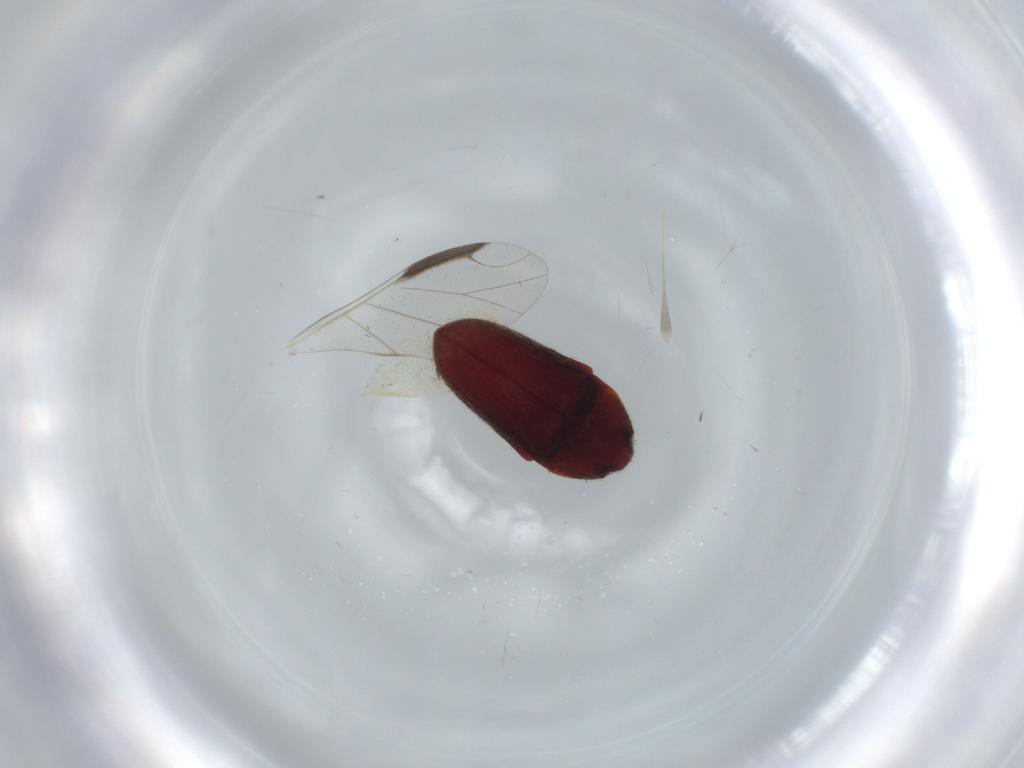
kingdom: Animalia
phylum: Arthropoda
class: Insecta
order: Coleoptera
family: Throscidae
